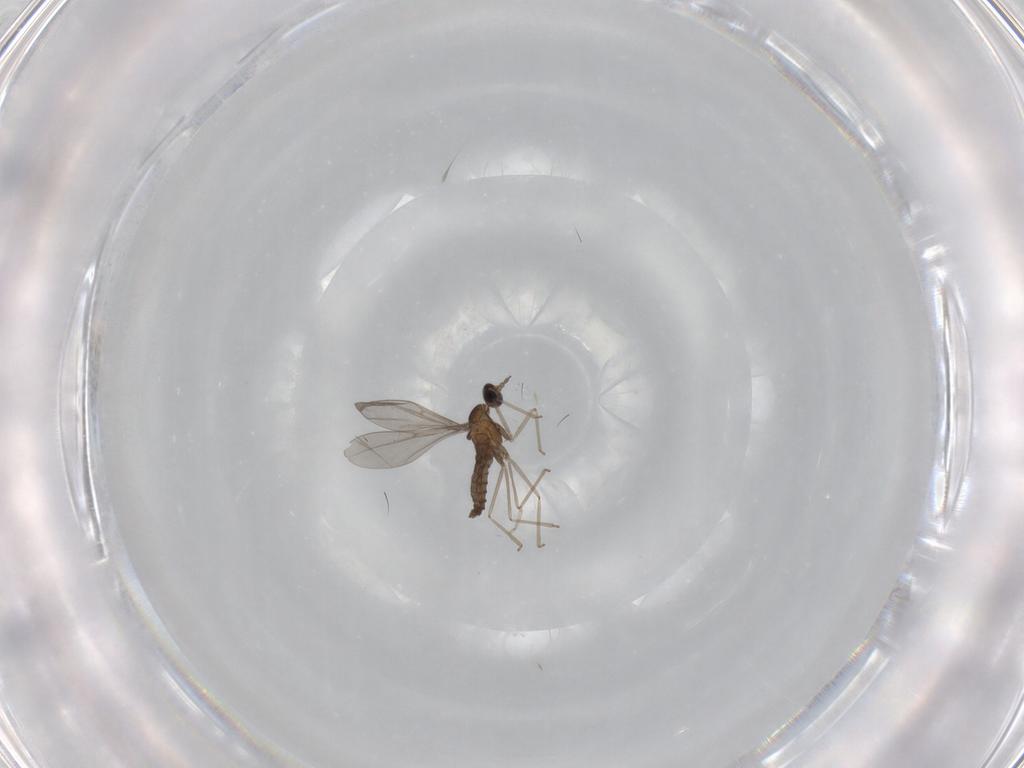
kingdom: Animalia
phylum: Arthropoda
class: Insecta
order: Diptera
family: Cecidomyiidae
